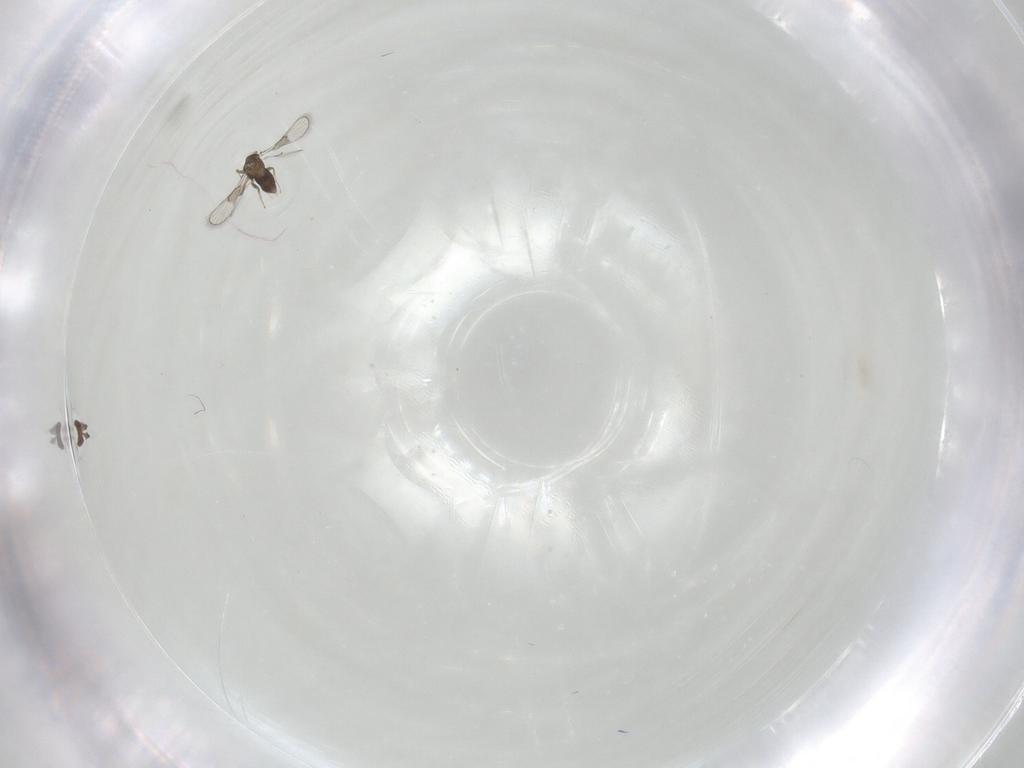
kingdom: Animalia
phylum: Arthropoda
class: Insecta
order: Hymenoptera
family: Trichogrammatidae
